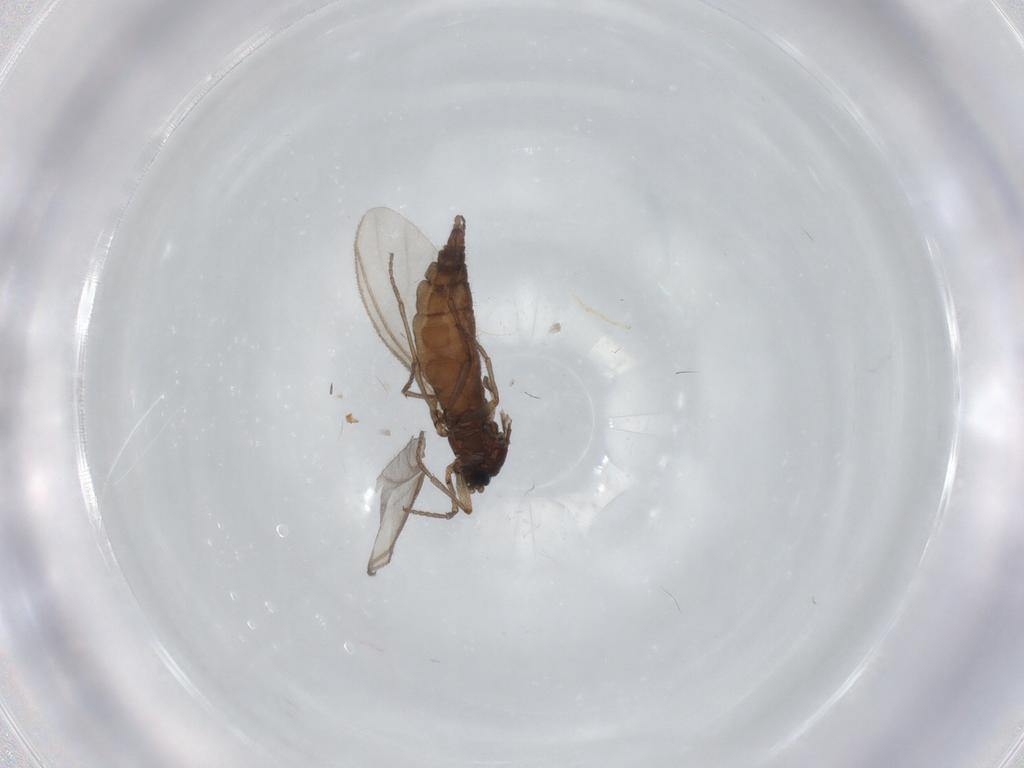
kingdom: Animalia
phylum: Arthropoda
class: Insecta
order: Diptera
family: Sciaridae
